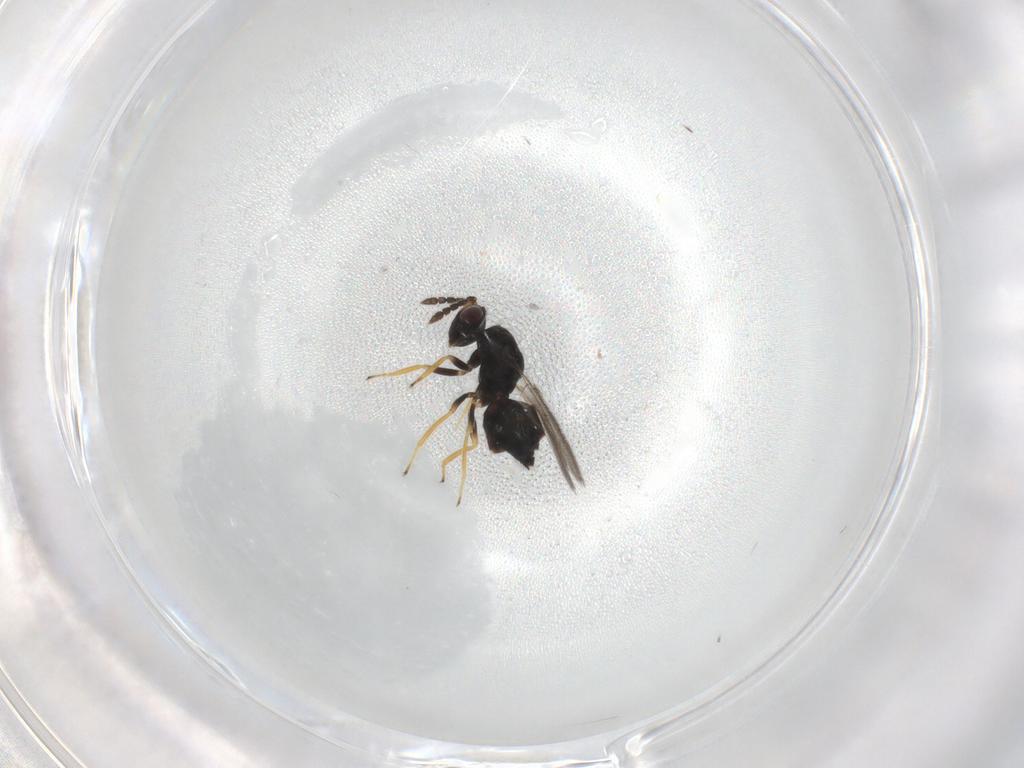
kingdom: Animalia
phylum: Arthropoda
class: Insecta
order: Hymenoptera
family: Eulophidae
